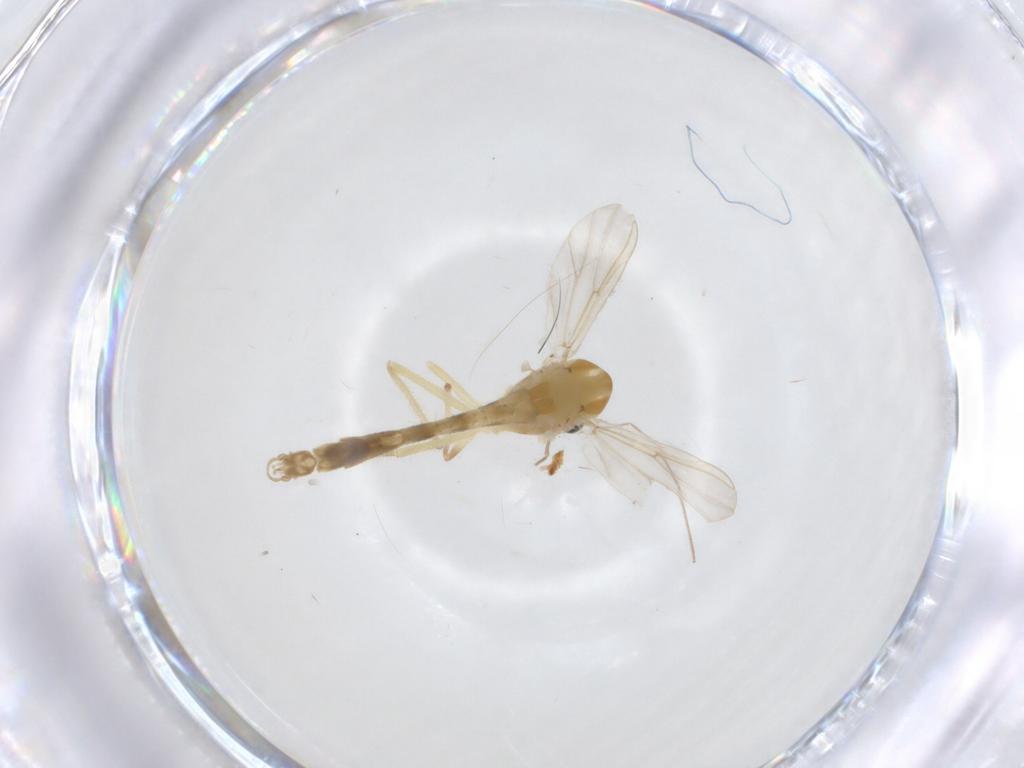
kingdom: Animalia
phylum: Arthropoda
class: Insecta
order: Diptera
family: Chironomidae
